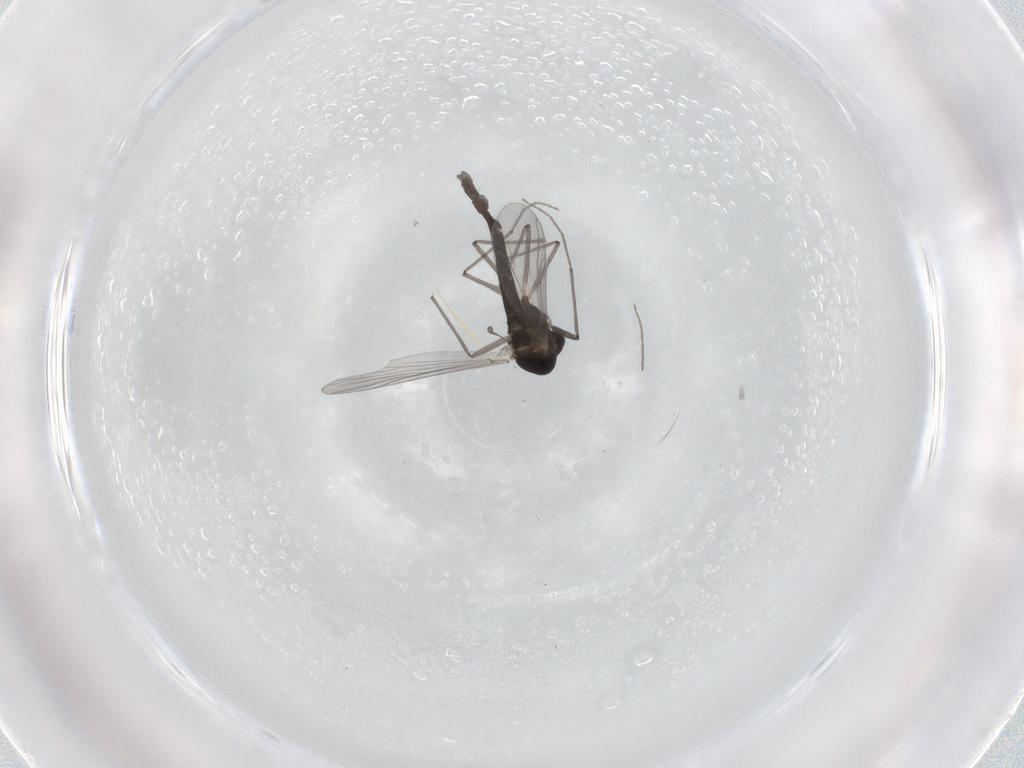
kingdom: Animalia
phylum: Arthropoda
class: Insecta
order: Diptera
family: Chironomidae
